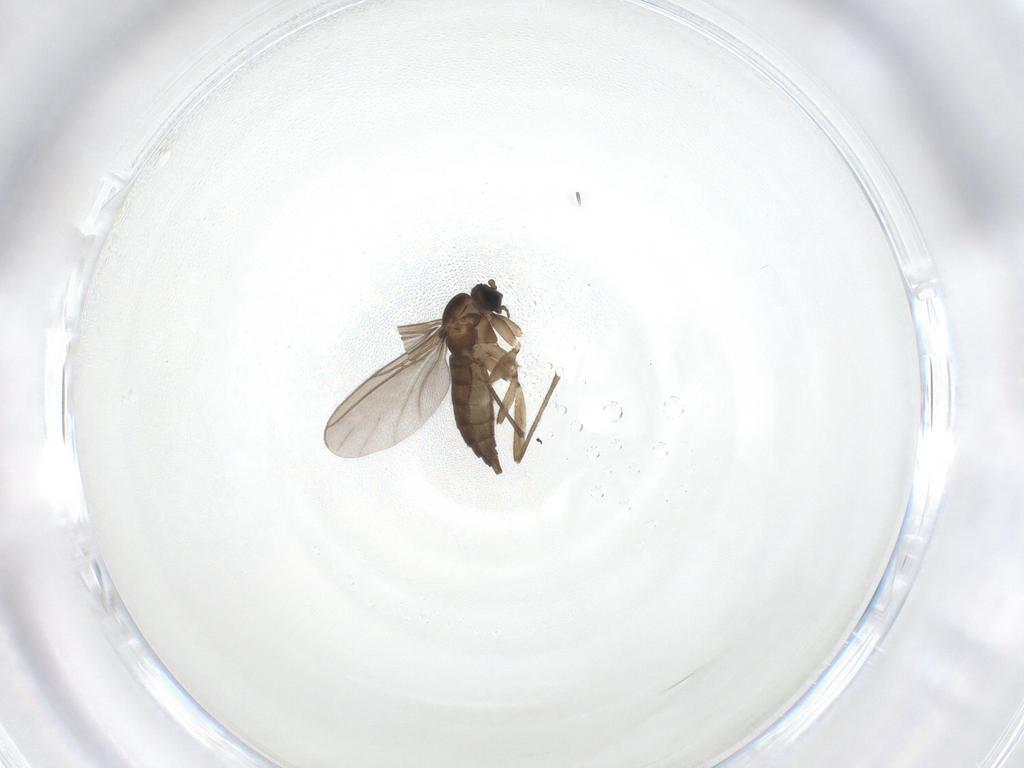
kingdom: Animalia
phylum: Arthropoda
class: Insecta
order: Diptera
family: Sciaridae
